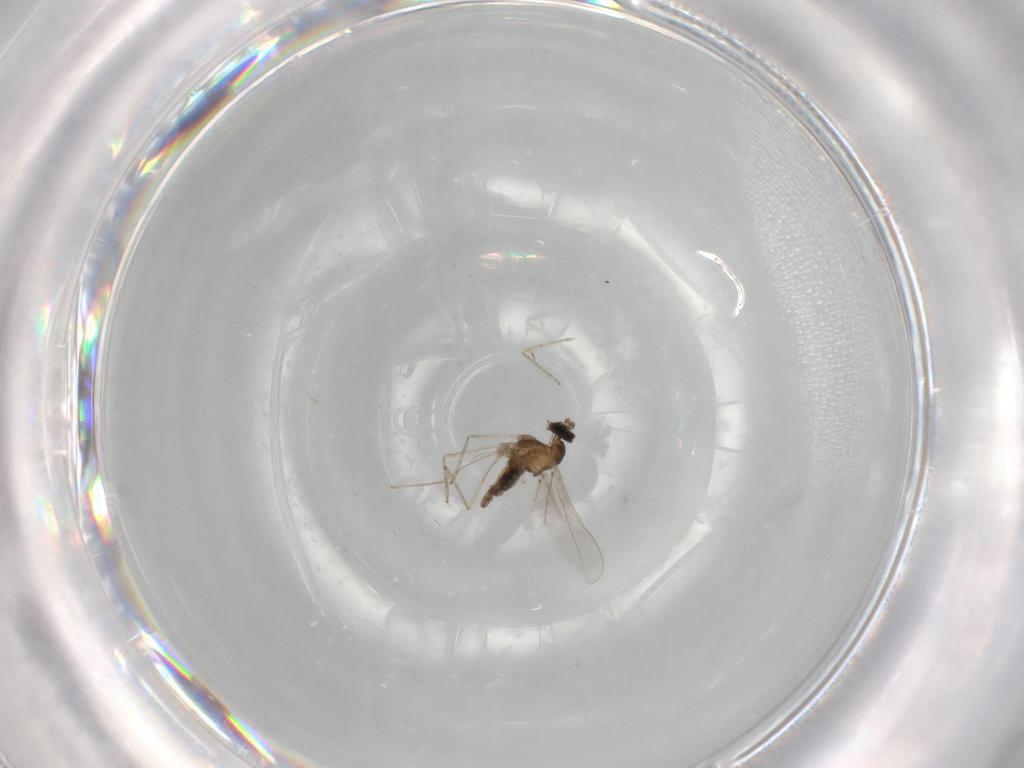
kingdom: Animalia
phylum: Arthropoda
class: Insecta
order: Diptera
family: Cecidomyiidae
